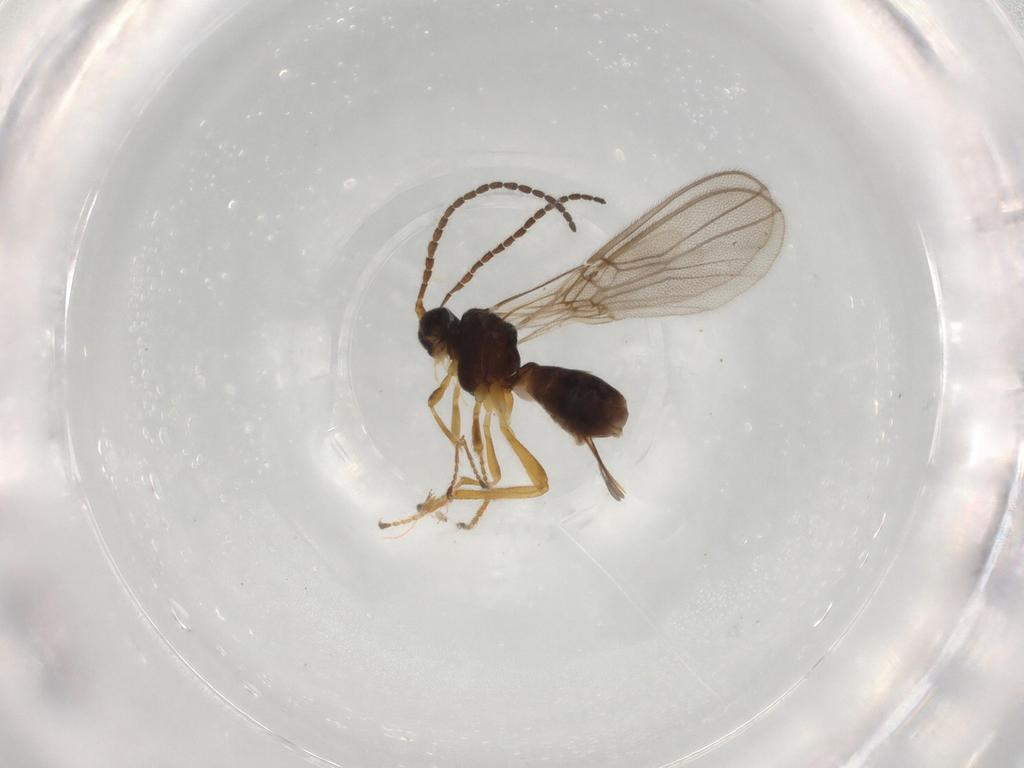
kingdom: Animalia
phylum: Arthropoda
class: Insecta
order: Hymenoptera
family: Braconidae
